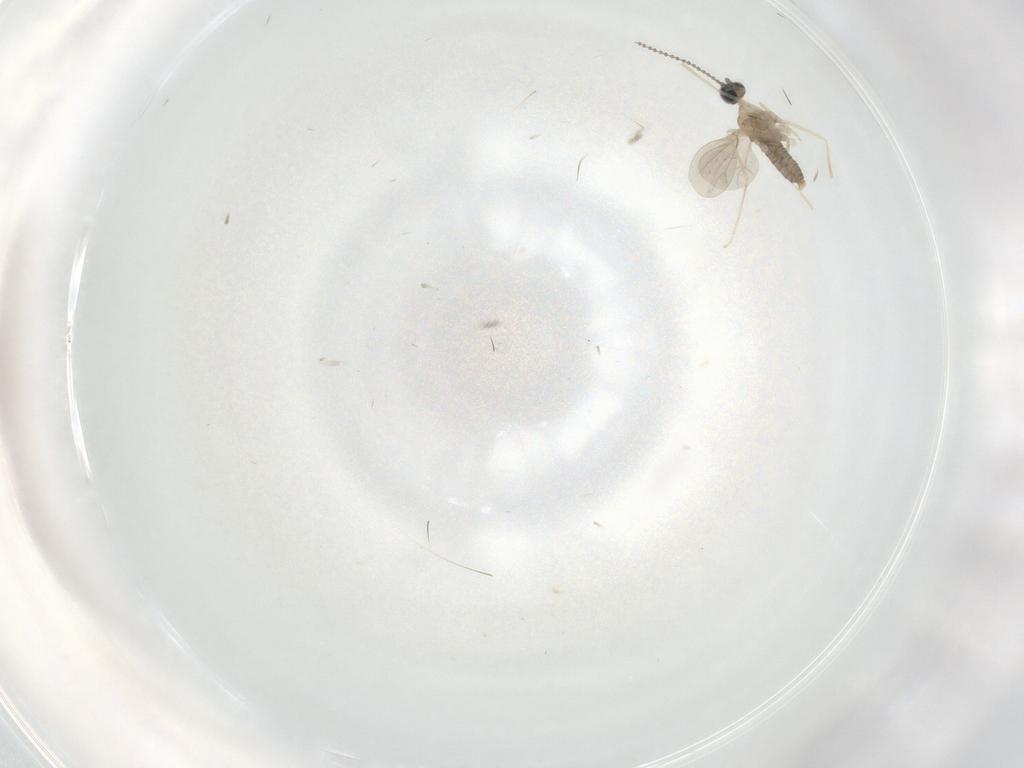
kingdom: Animalia
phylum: Arthropoda
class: Insecta
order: Diptera
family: Cecidomyiidae
